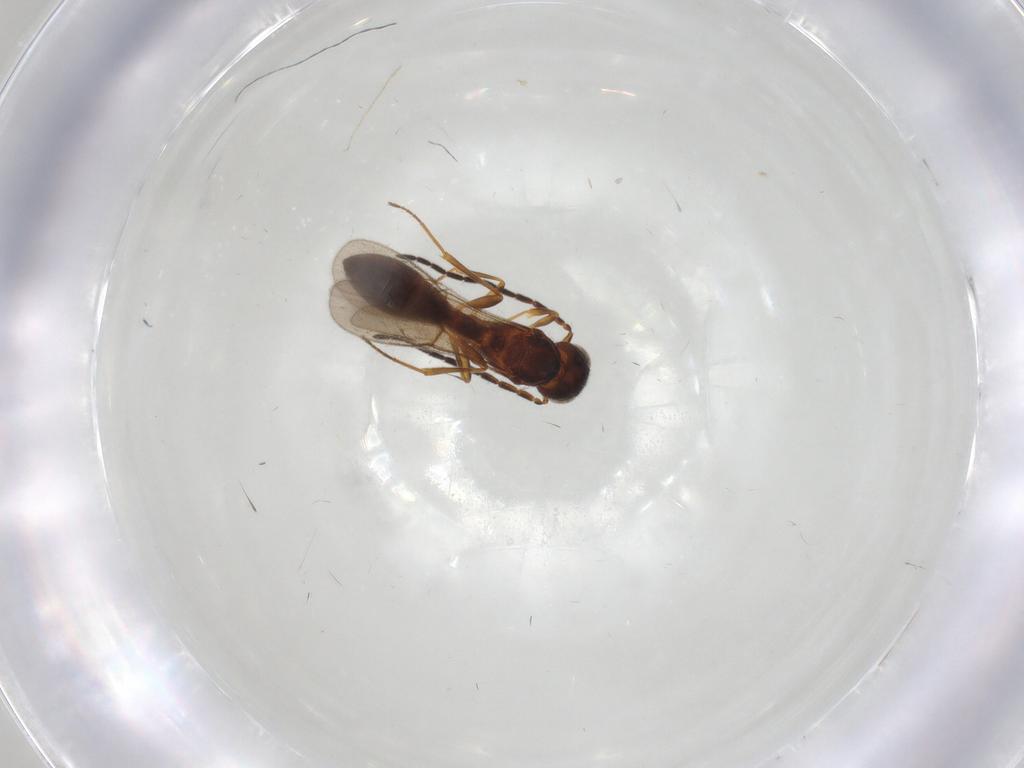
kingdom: Animalia
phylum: Arthropoda
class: Insecta
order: Hymenoptera
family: Scelionidae
